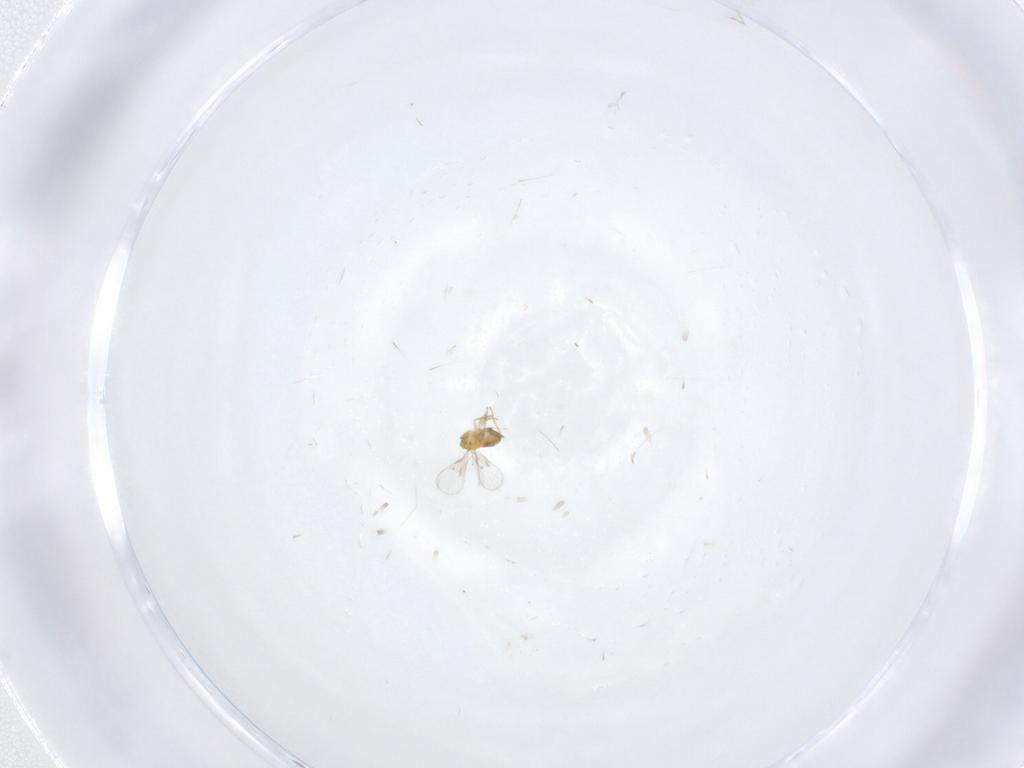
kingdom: Animalia
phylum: Arthropoda
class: Insecta
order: Hymenoptera
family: Trichogrammatidae
